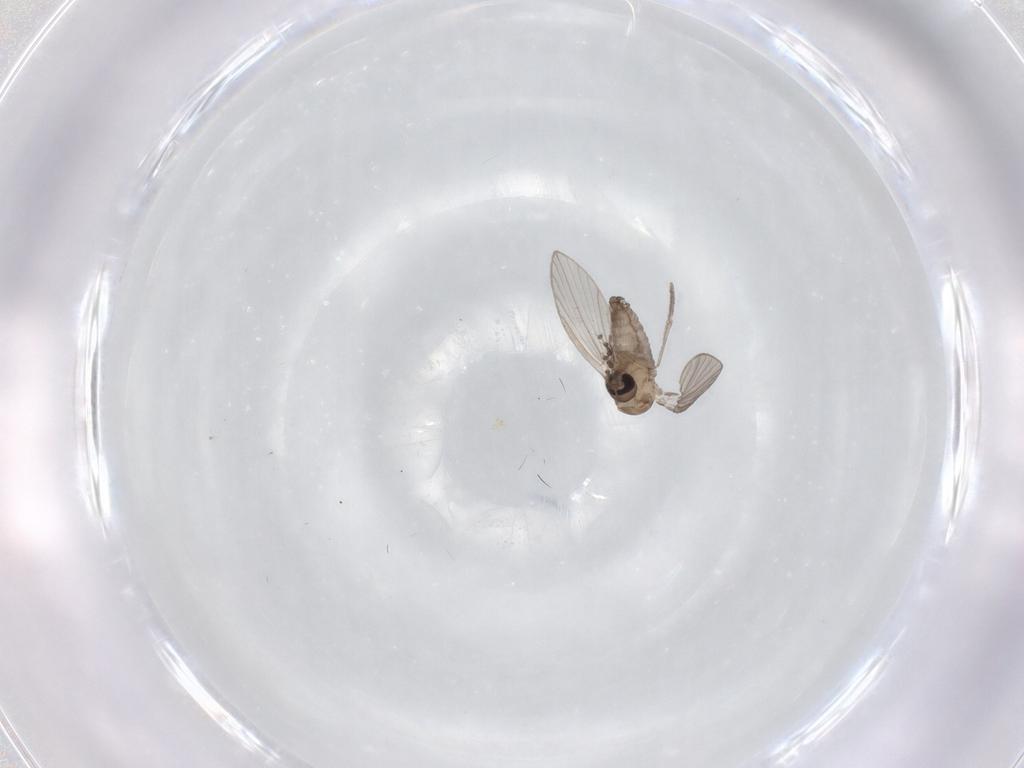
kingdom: Animalia
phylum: Arthropoda
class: Insecta
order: Diptera
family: Psychodidae
